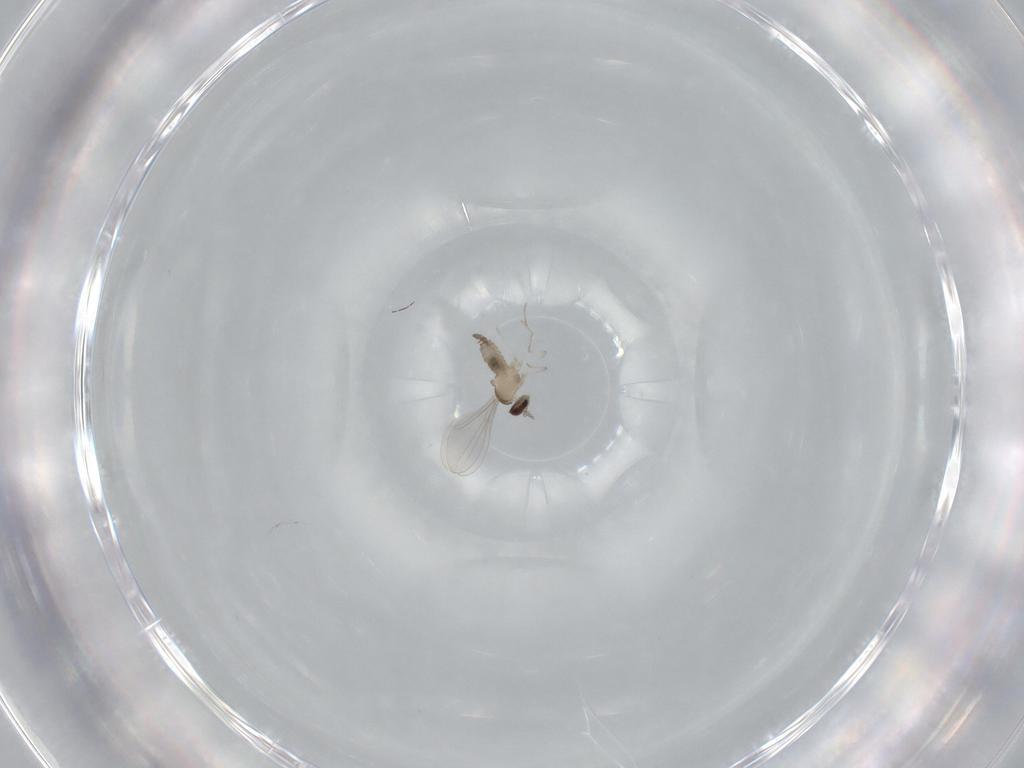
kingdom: Animalia
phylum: Arthropoda
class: Insecta
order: Diptera
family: Cecidomyiidae
